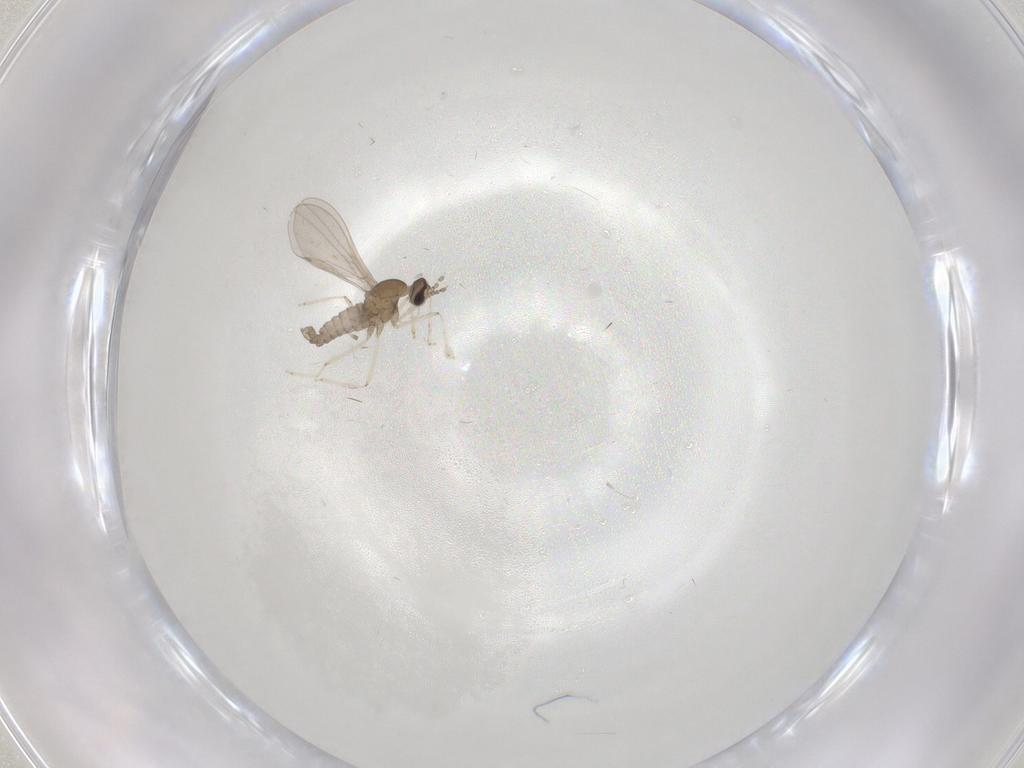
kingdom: Animalia
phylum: Arthropoda
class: Insecta
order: Diptera
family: Cecidomyiidae
